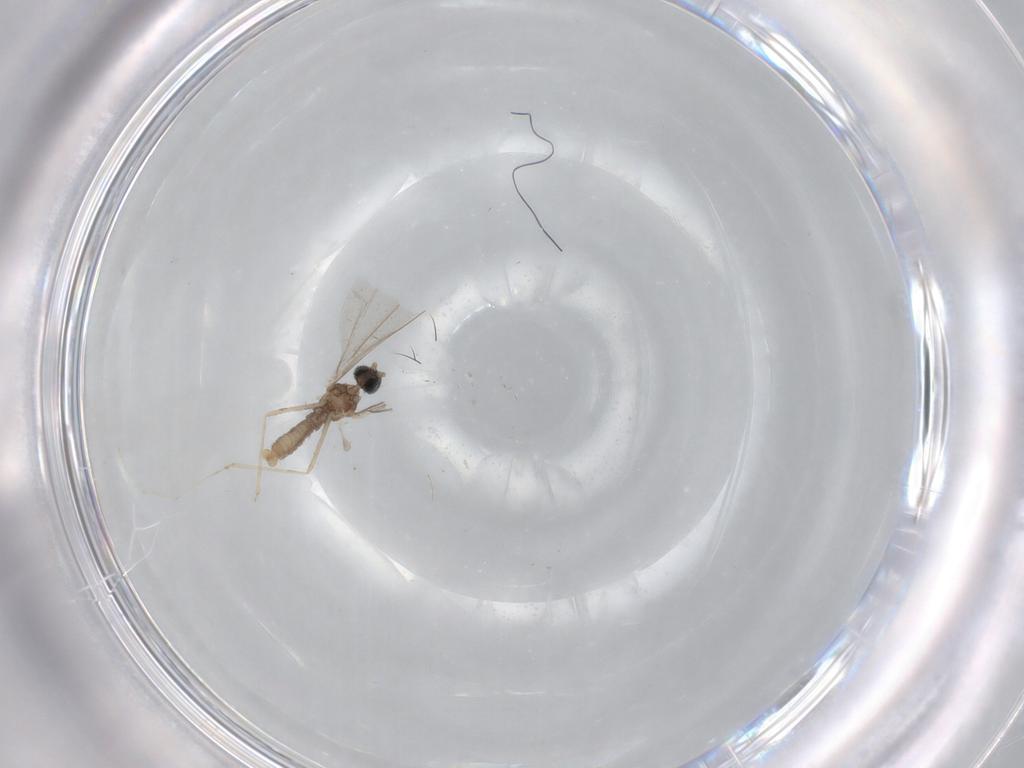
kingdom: Animalia
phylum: Arthropoda
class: Insecta
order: Diptera
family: Cecidomyiidae
